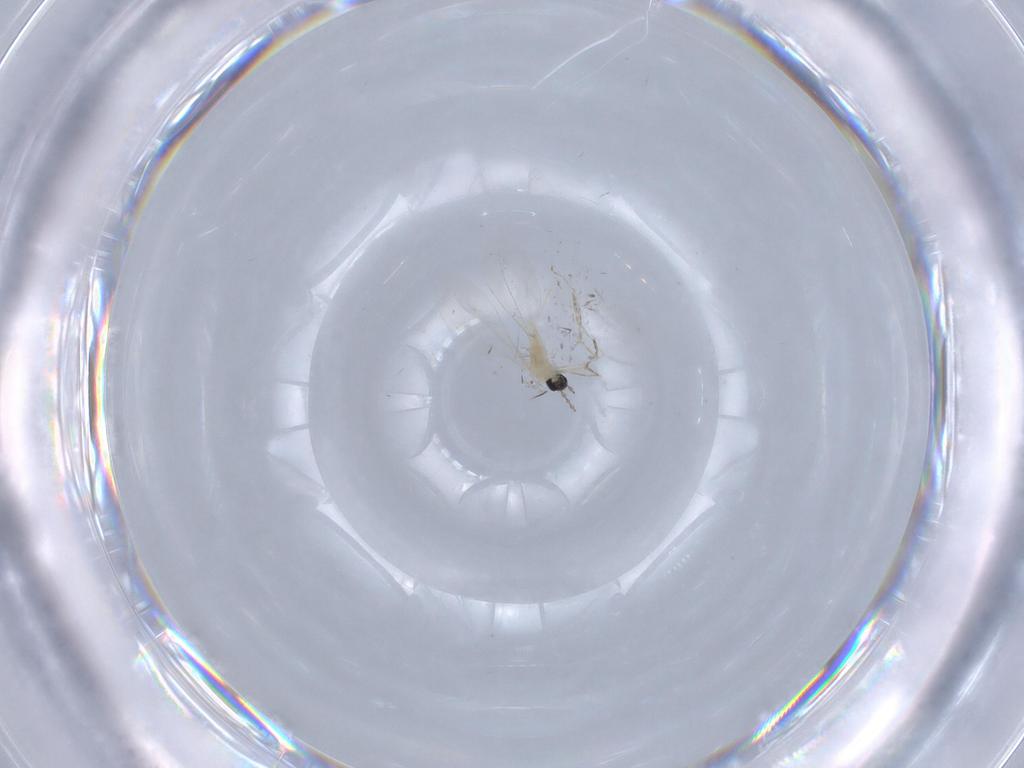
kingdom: Animalia
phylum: Arthropoda
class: Insecta
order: Diptera
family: Cecidomyiidae
